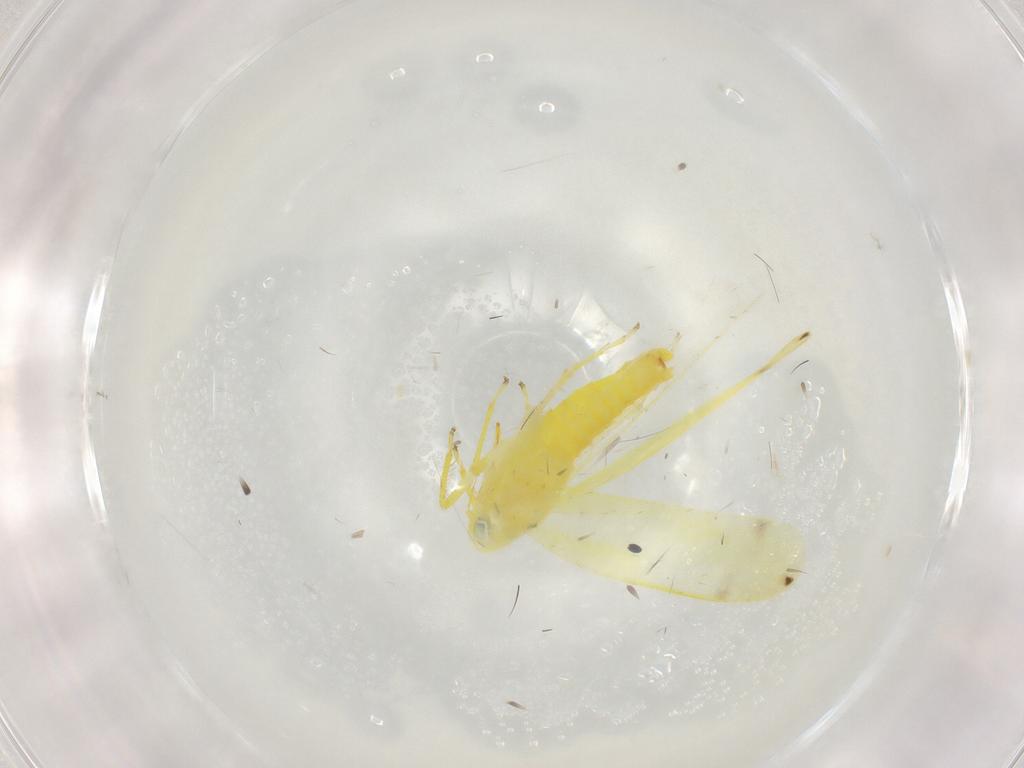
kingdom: Animalia
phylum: Arthropoda
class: Insecta
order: Hemiptera
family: Cicadellidae
